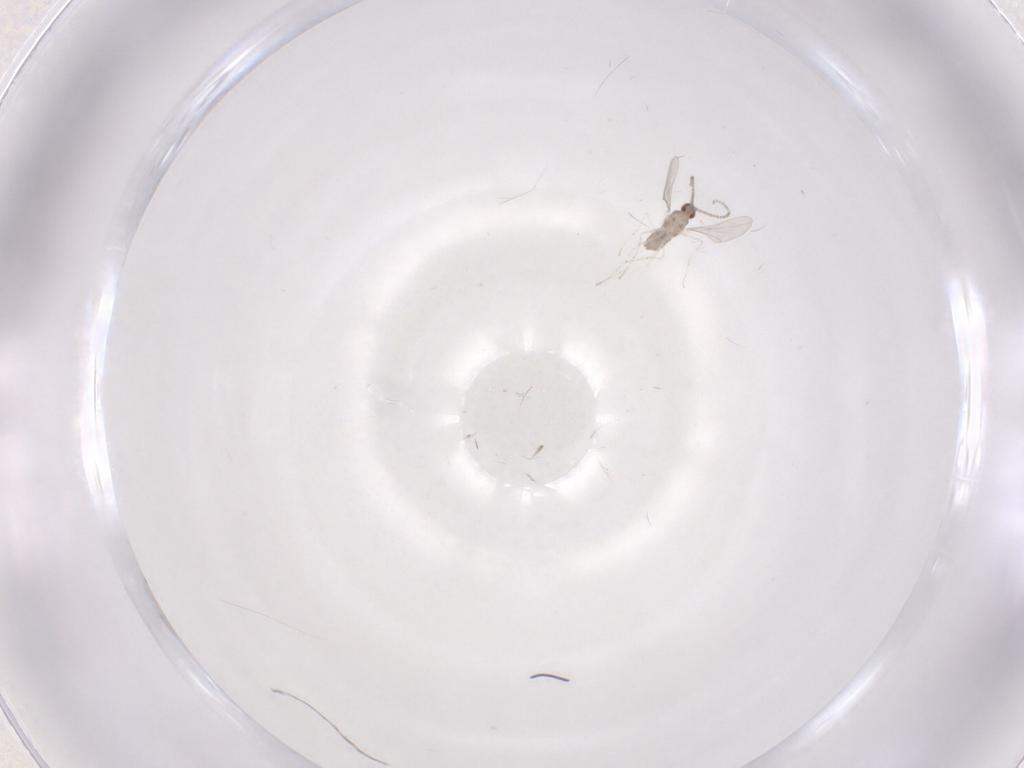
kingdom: Animalia
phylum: Arthropoda
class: Insecta
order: Diptera
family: Cecidomyiidae
